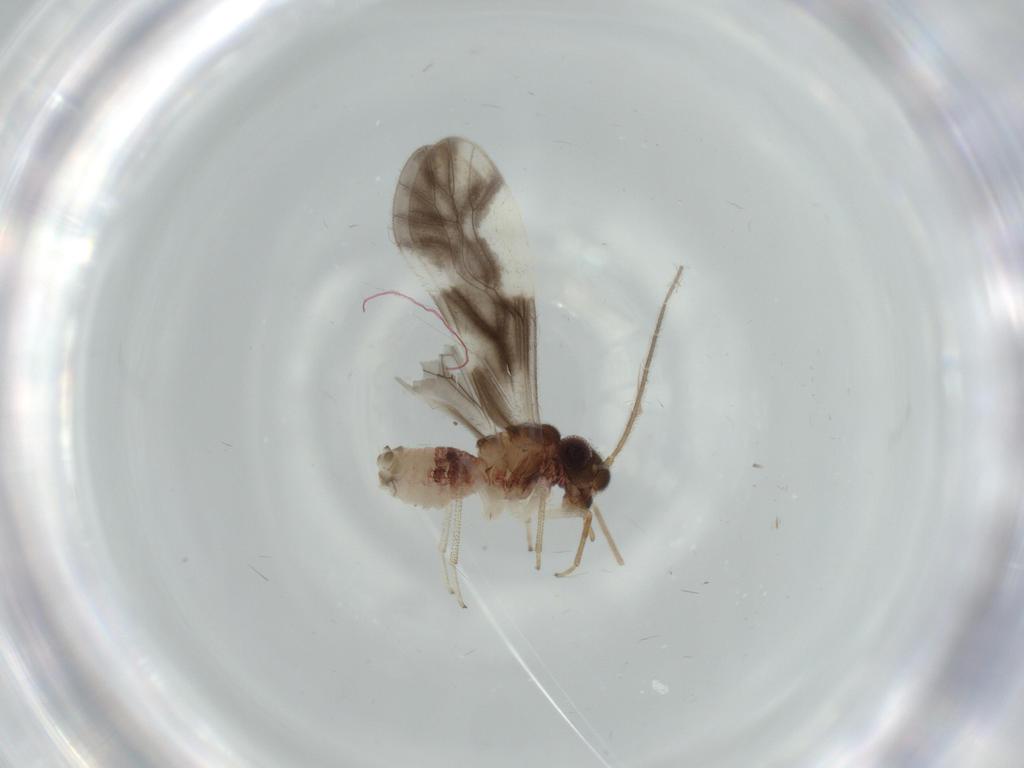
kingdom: Animalia
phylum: Arthropoda
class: Insecta
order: Psocodea
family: Caeciliusidae
